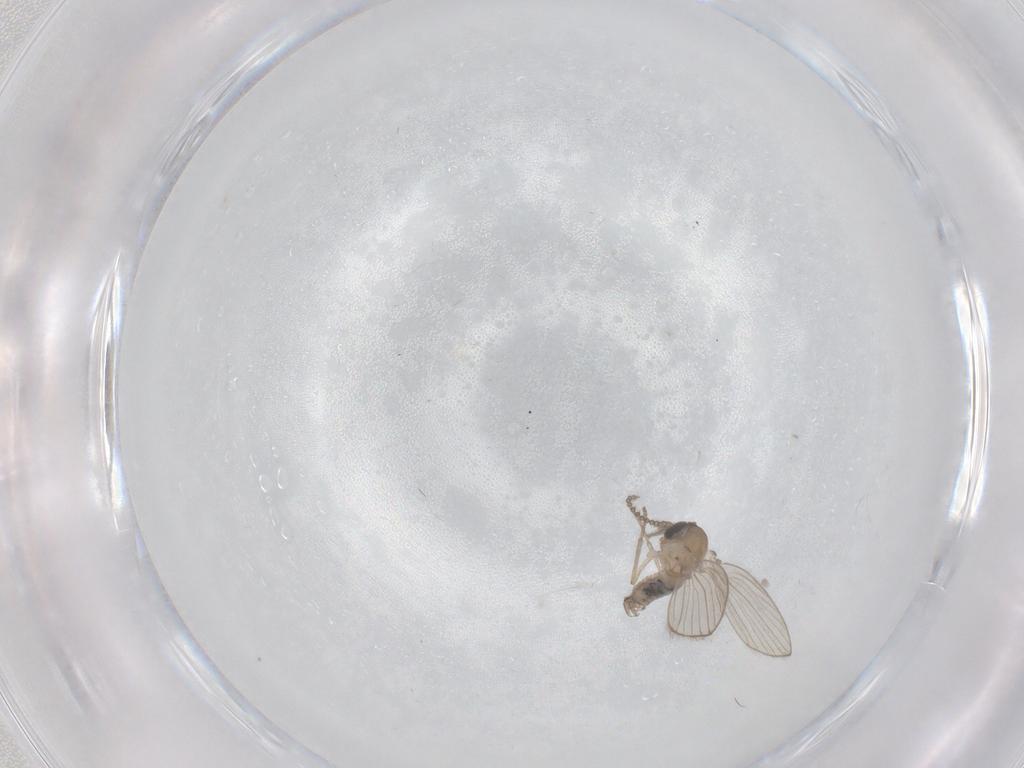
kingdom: Animalia
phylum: Arthropoda
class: Insecta
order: Diptera
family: Psychodidae
